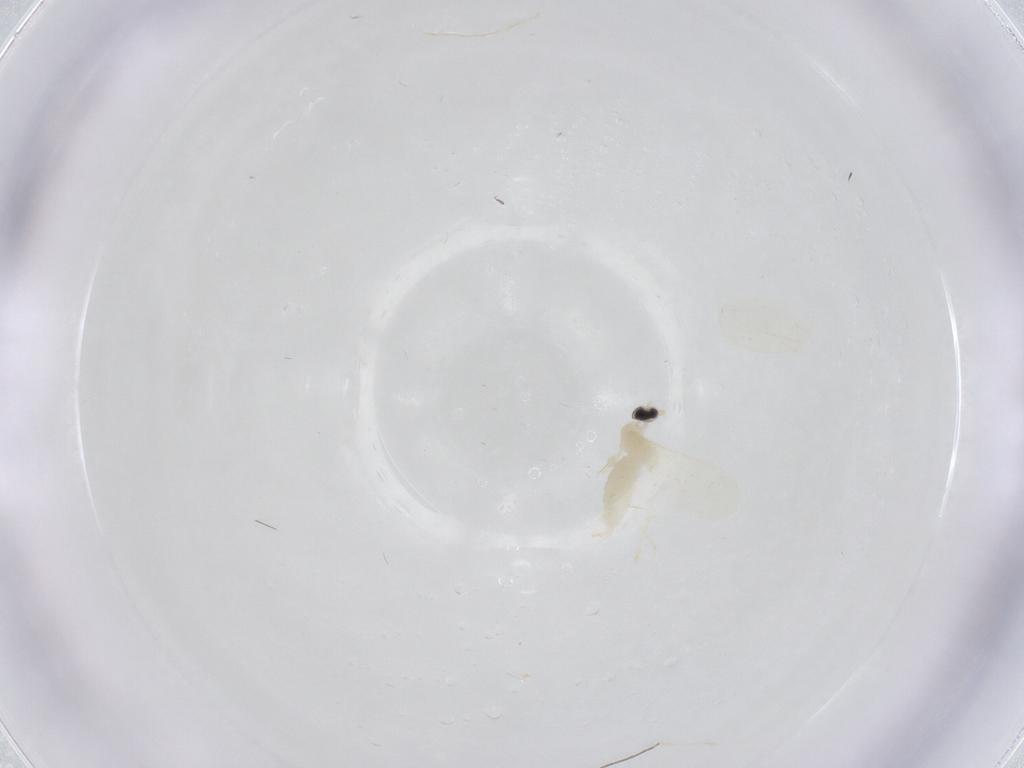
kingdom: Animalia
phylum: Arthropoda
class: Insecta
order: Diptera
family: Cecidomyiidae
